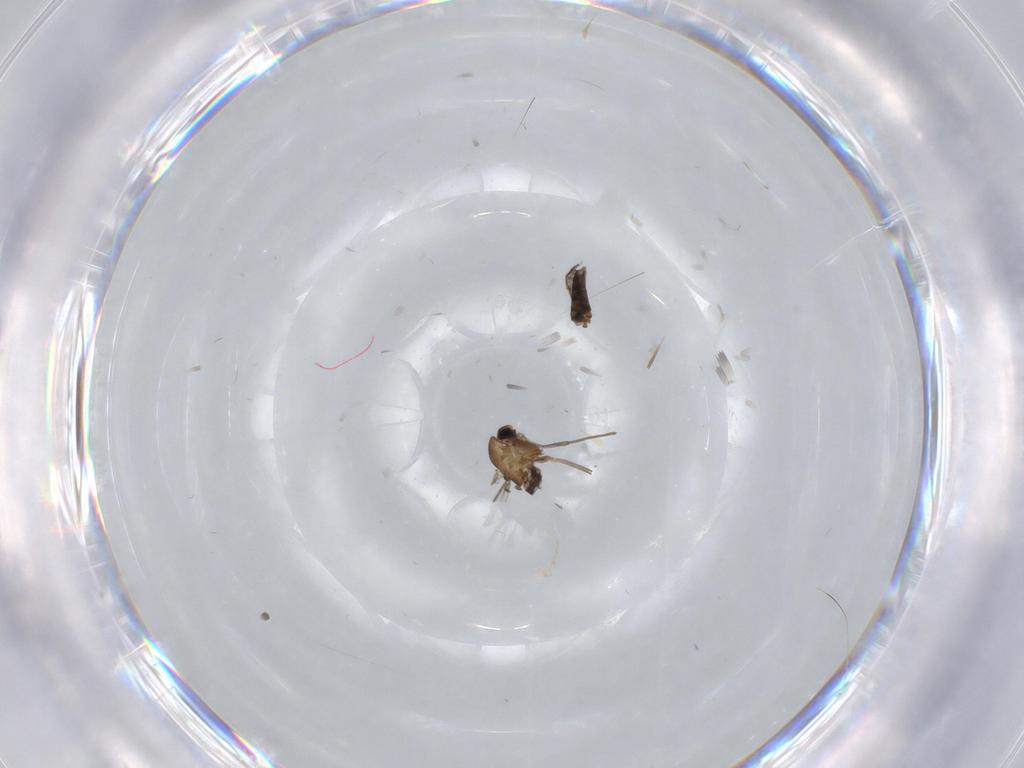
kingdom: Animalia
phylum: Arthropoda
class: Insecta
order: Diptera
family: Chironomidae
